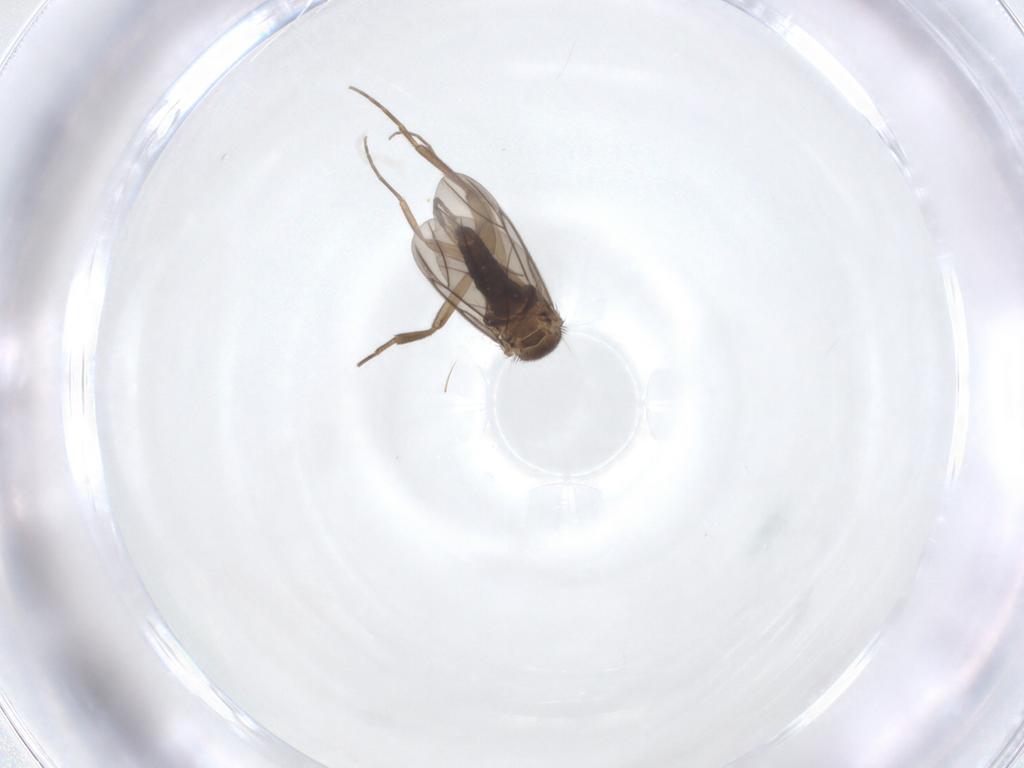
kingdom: Animalia
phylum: Arthropoda
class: Insecta
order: Diptera
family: Phoridae
